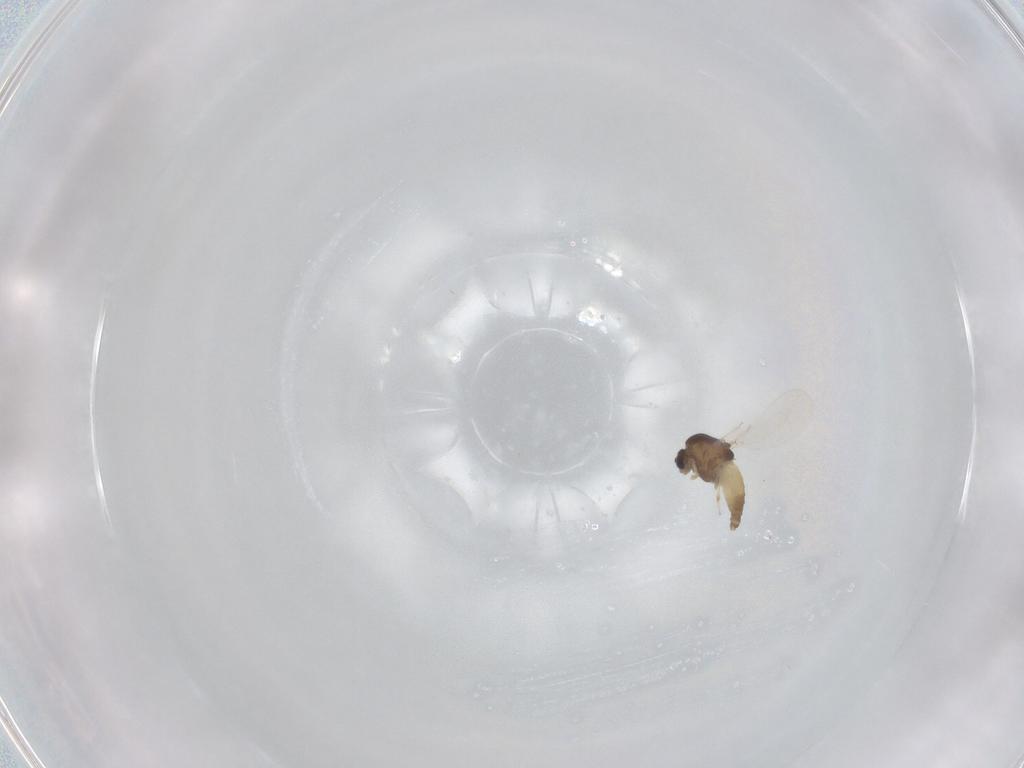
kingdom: Animalia
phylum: Arthropoda
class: Insecta
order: Diptera
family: Chironomidae
